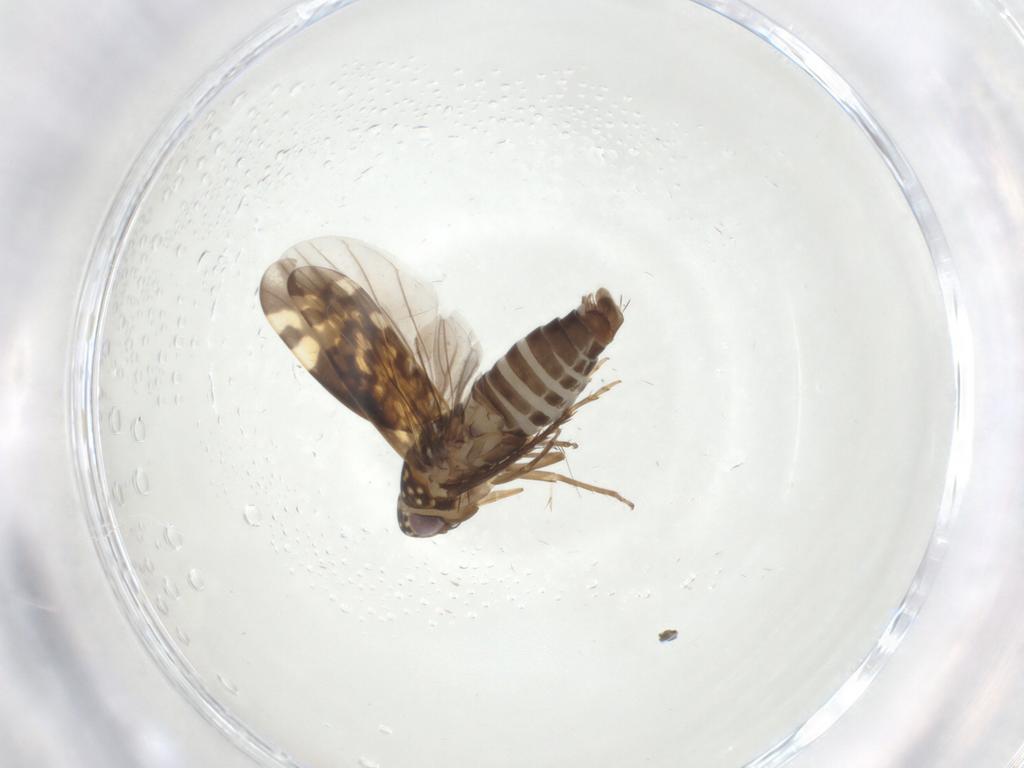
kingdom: Animalia
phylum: Arthropoda
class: Insecta
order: Hemiptera
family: Cicadellidae
